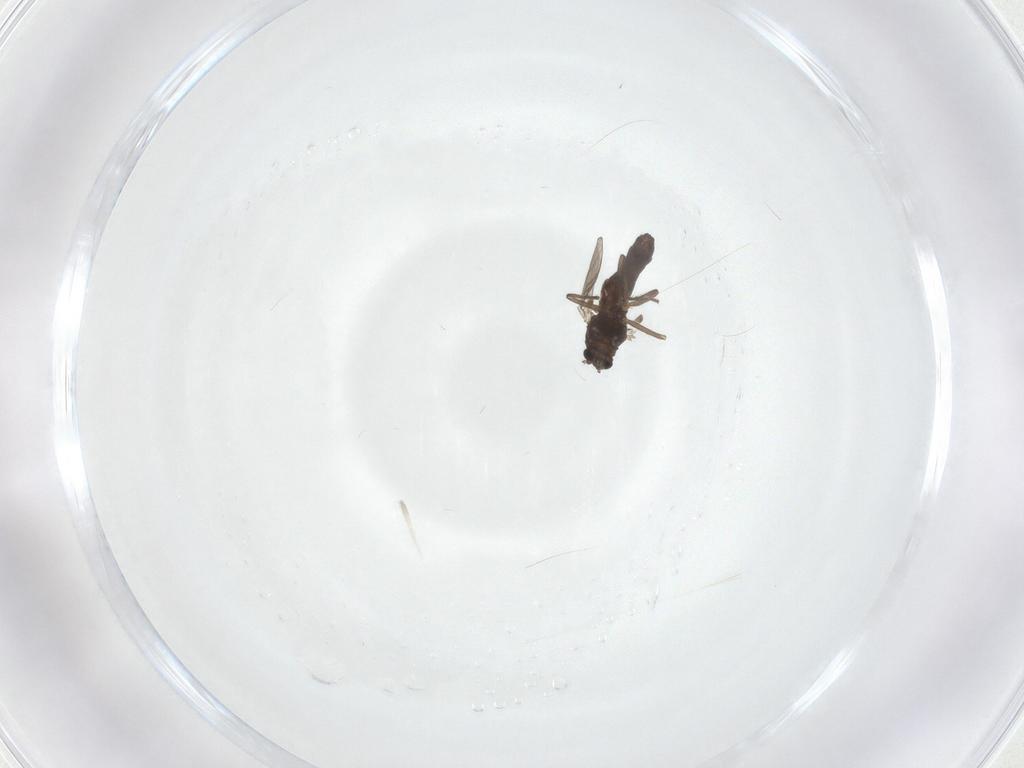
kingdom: Animalia
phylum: Arthropoda
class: Insecta
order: Diptera
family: Chironomidae
